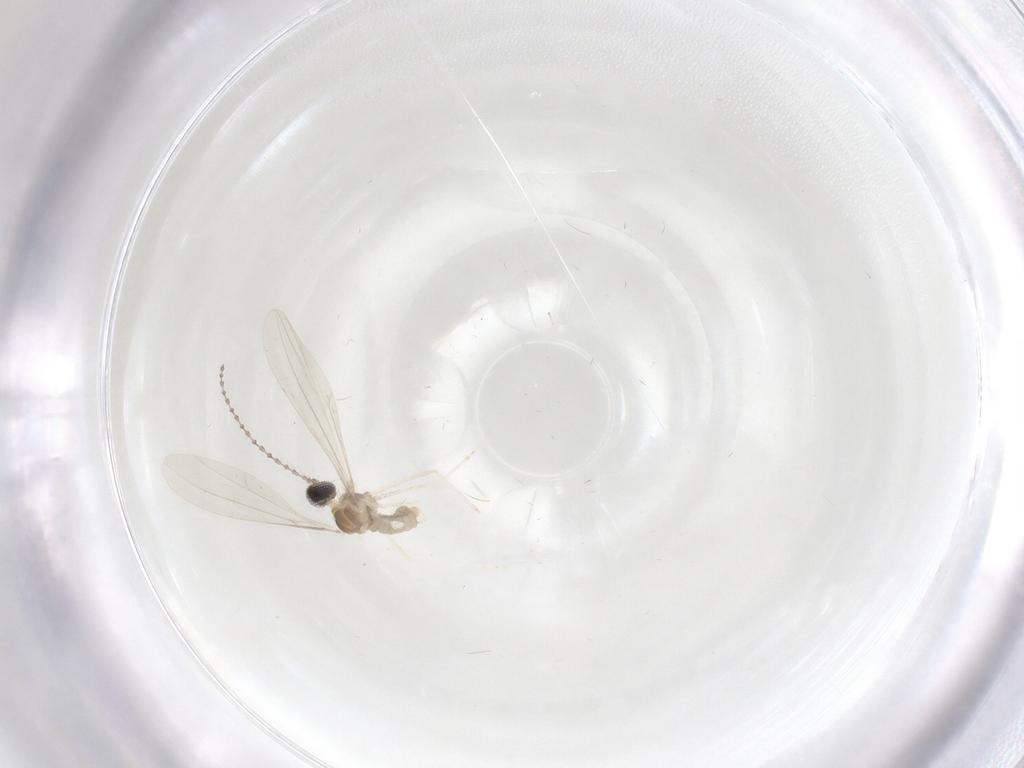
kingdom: Animalia
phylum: Arthropoda
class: Insecta
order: Diptera
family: Cecidomyiidae
